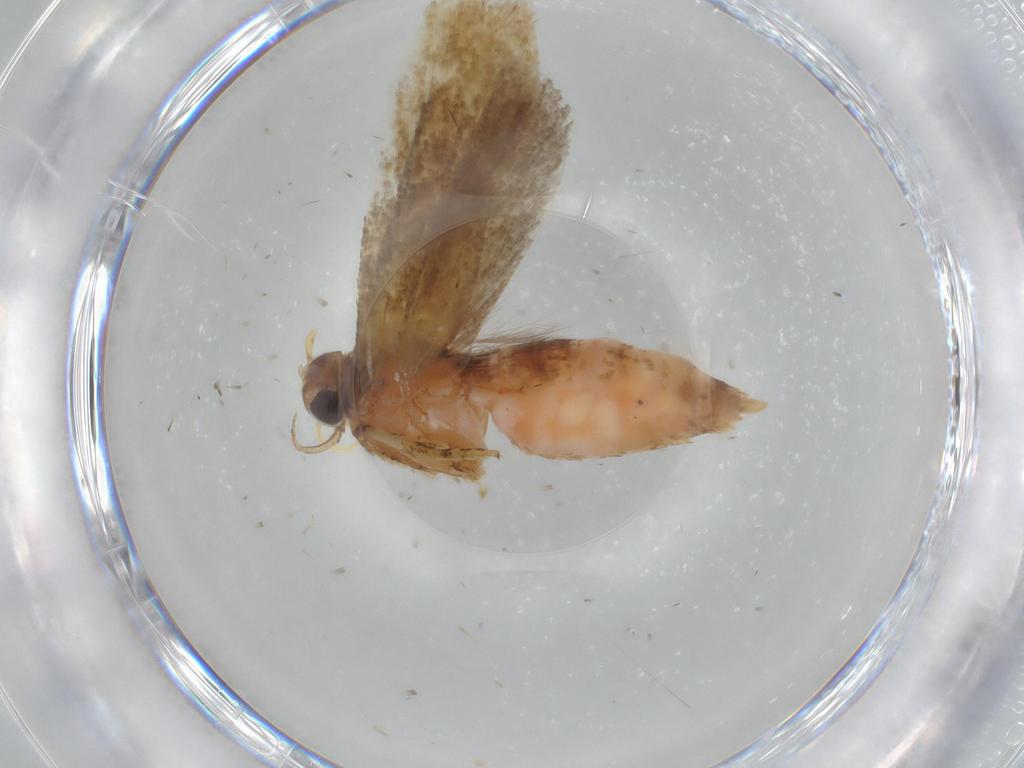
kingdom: Animalia
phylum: Arthropoda
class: Insecta
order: Lepidoptera
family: Gelechiidae
